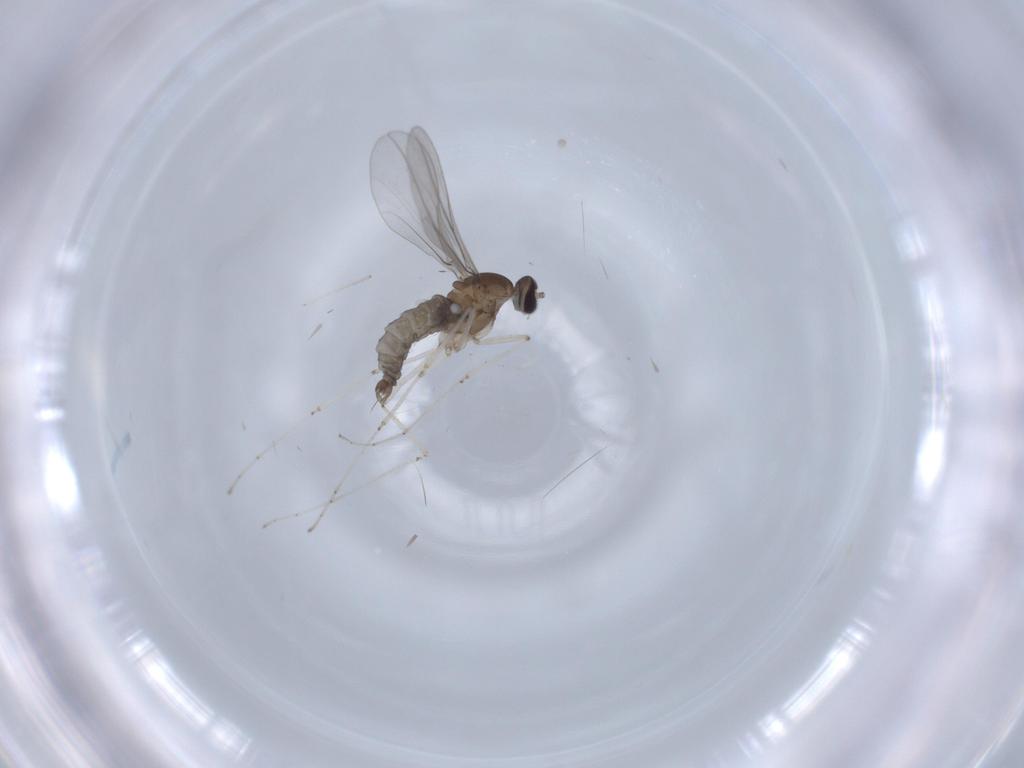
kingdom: Animalia
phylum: Arthropoda
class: Insecta
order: Diptera
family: Cecidomyiidae
